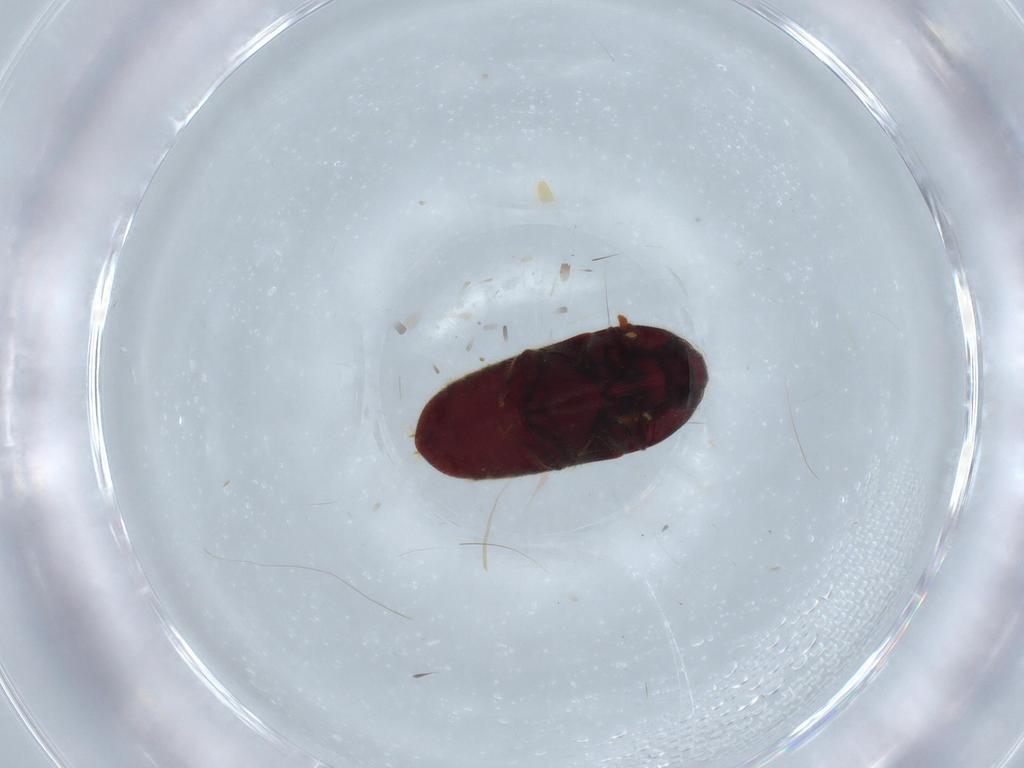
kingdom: Animalia
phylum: Arthropoda
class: Insecta
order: Coleoptera
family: Throscidae
